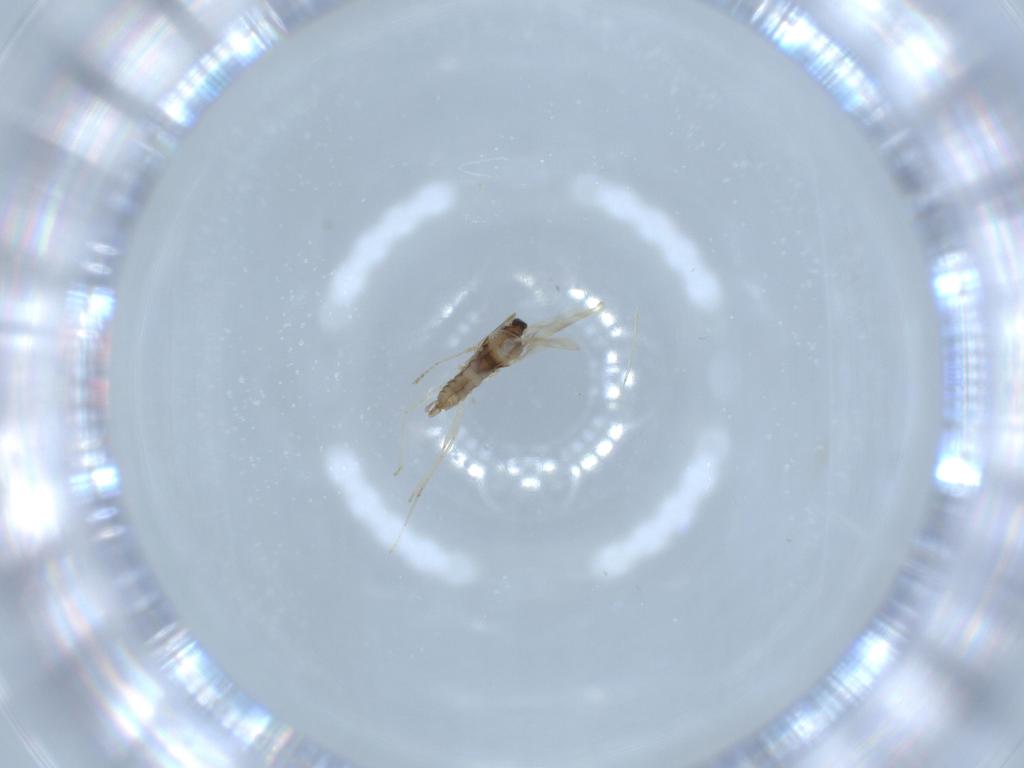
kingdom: Animalia
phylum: Arthropoda
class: Insecta
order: Diptera
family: Cecidomyiidae
